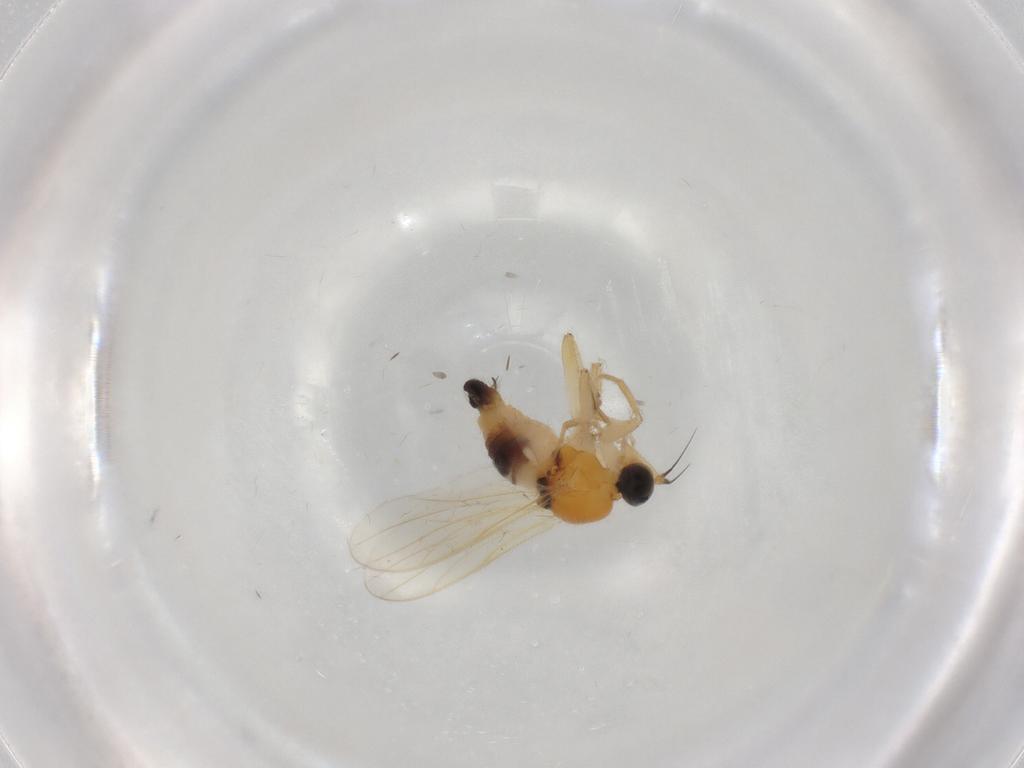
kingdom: Animalia
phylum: Arthropoda
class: Insecta
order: Diptera
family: Hybotidae
